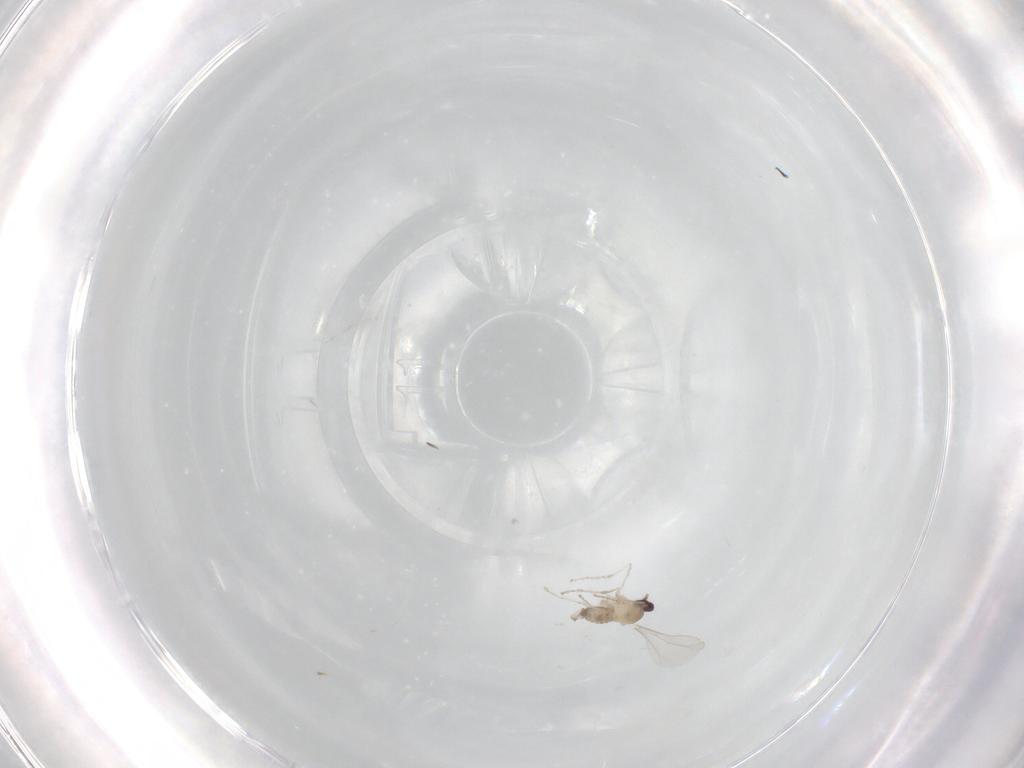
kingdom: Animalia
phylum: Arthropoda
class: Insecta
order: Diptera
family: Cecidomyiidae
